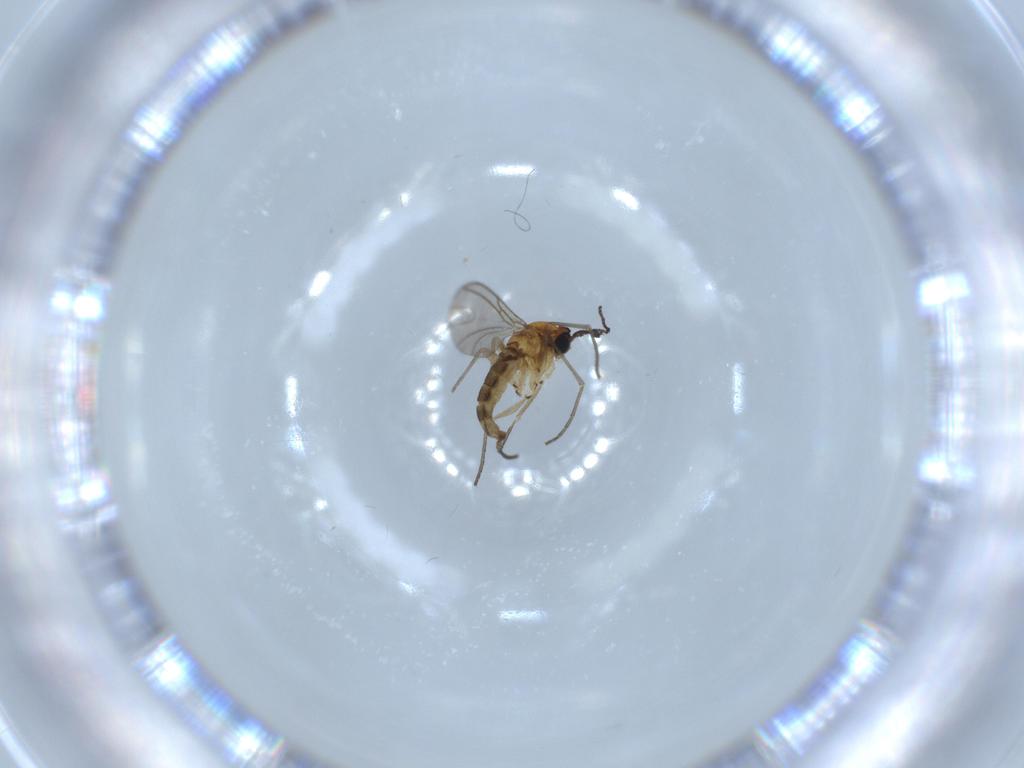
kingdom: Animalia
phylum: Arthropoda
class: Insecta
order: Diptera
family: Sciaridae
